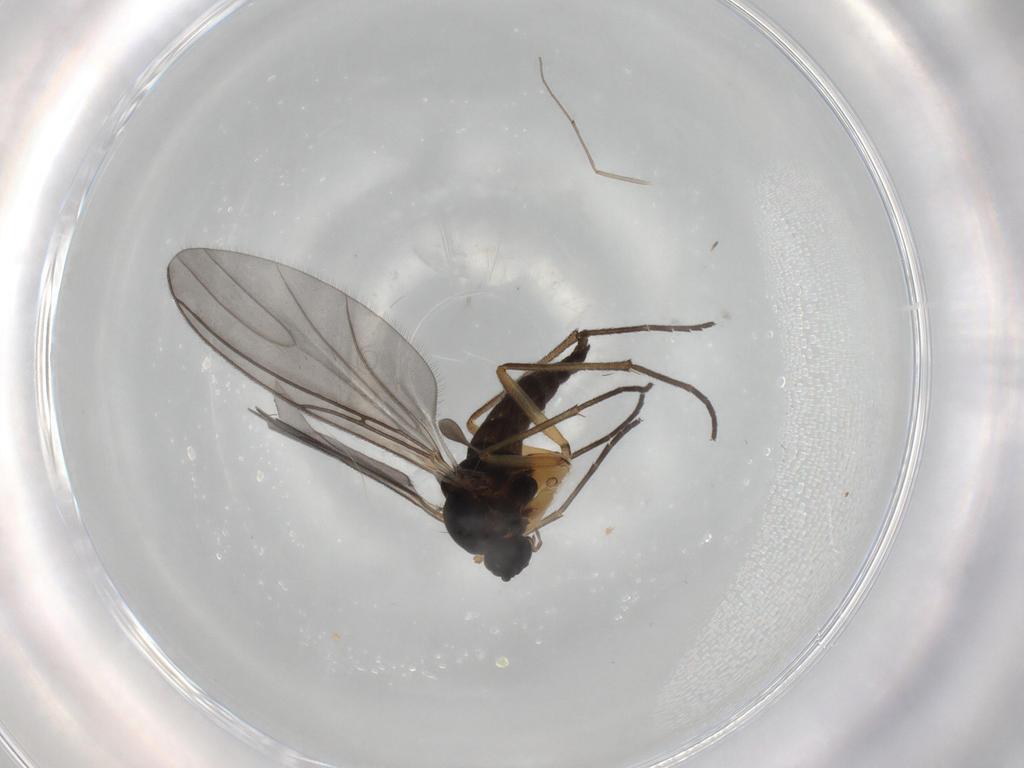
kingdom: Animalia
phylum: Arthropoda
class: Insecta
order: Diptera
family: Sciaridae
